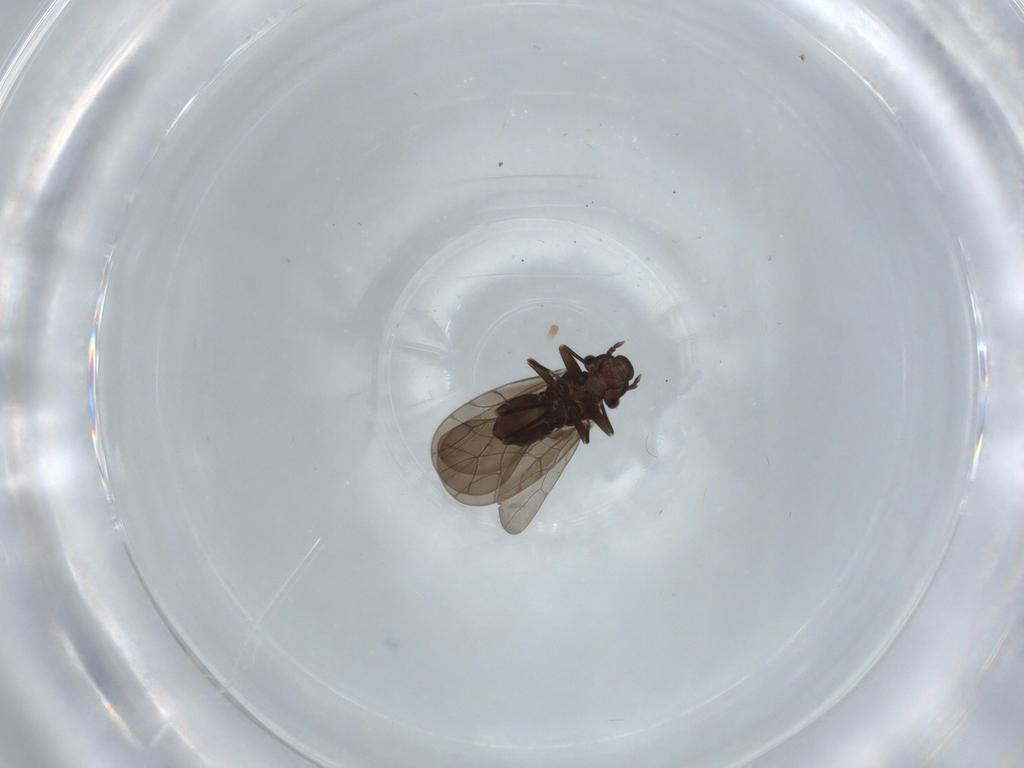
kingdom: Animalia
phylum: Arthropoda
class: Insecta
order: Psocodea
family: Lepidopsocidae
